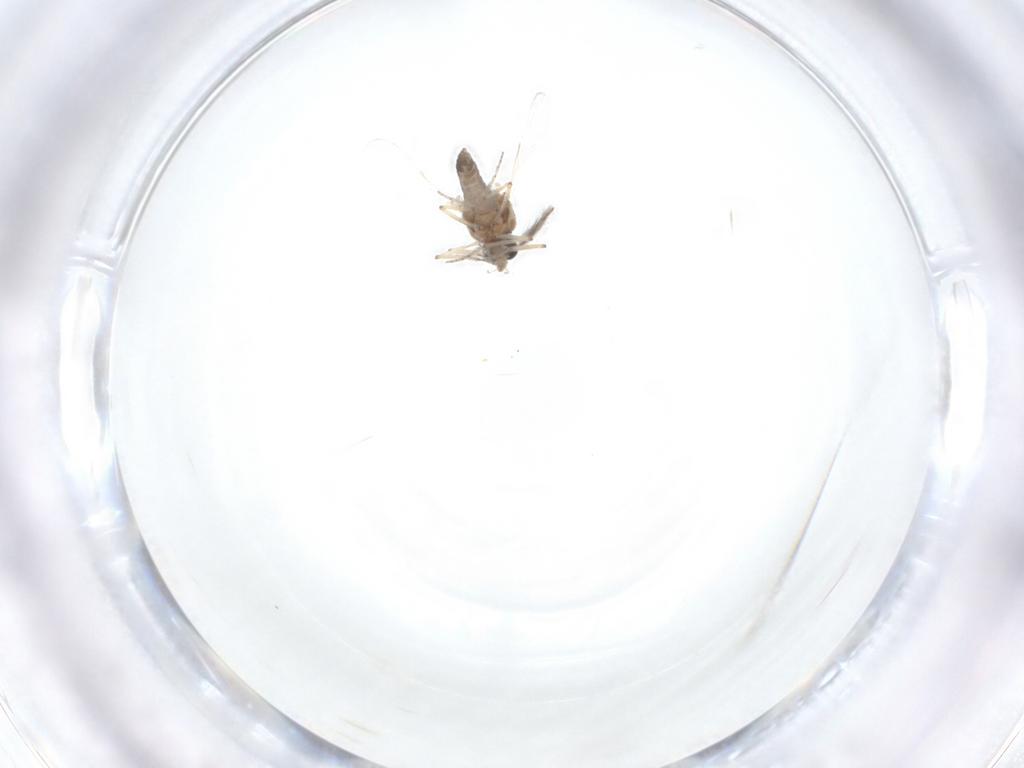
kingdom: Animalia
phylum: Arthropoda
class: Insecta
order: Diptera
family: Ceratopogonidae
